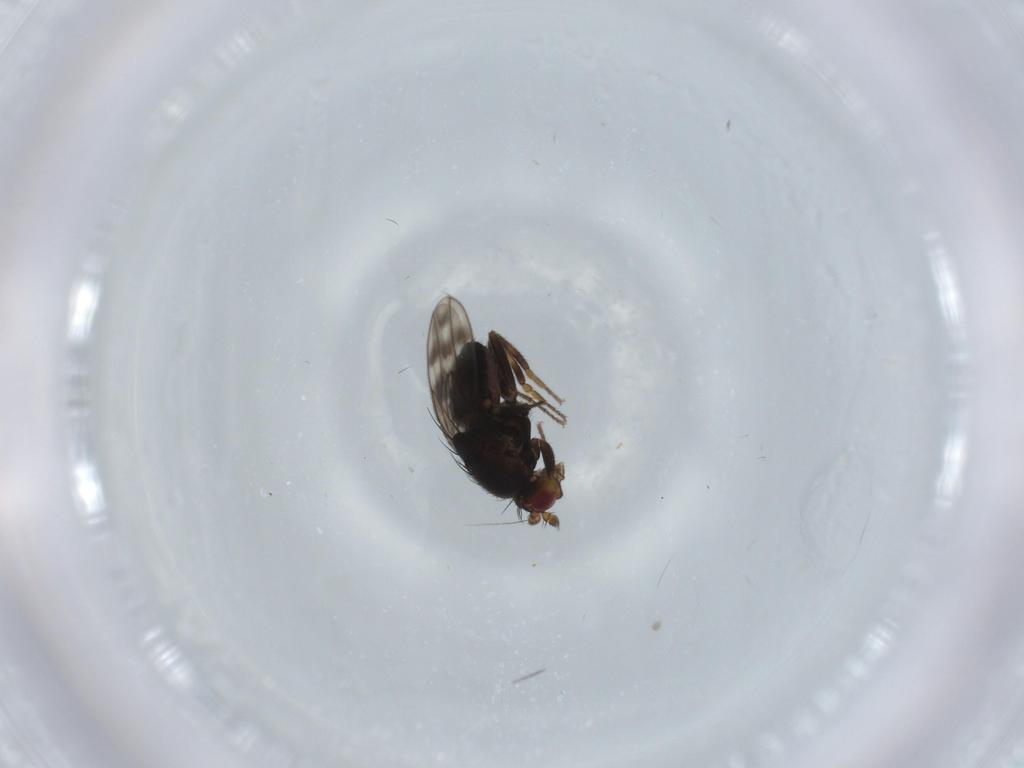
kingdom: Animalia
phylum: Arthropoda
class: Insecta
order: Diptera
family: Sphaeroceridae
